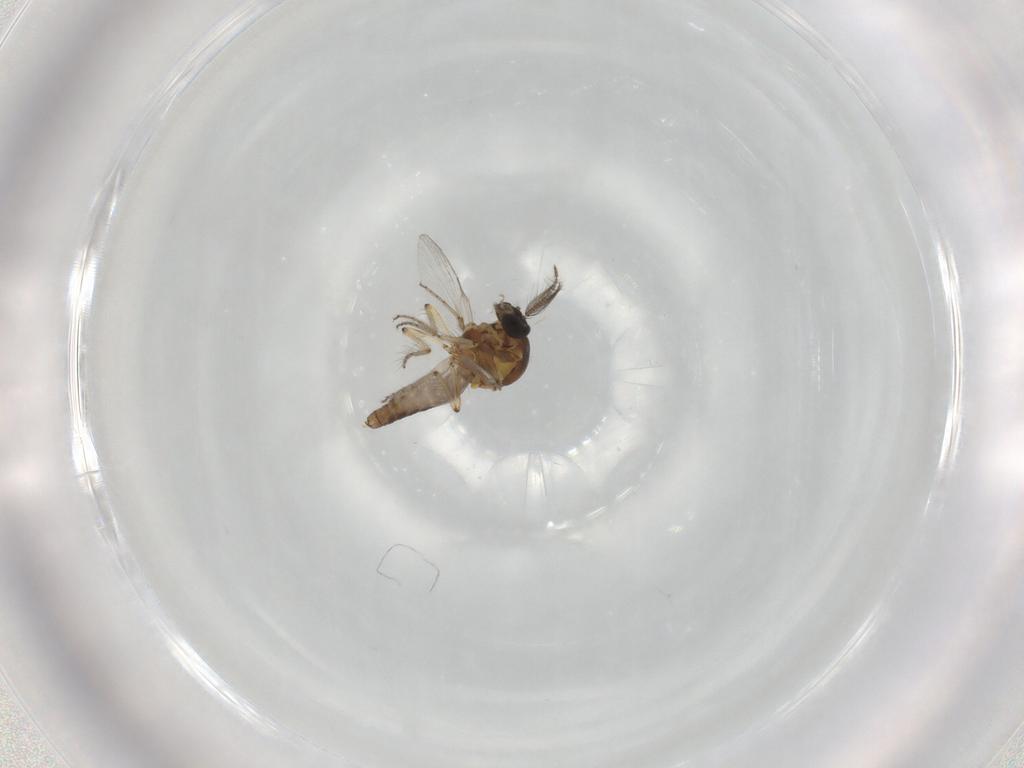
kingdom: Animalia
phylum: Arthropoda
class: Insecta
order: Diptera
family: Ceratopogonidae
